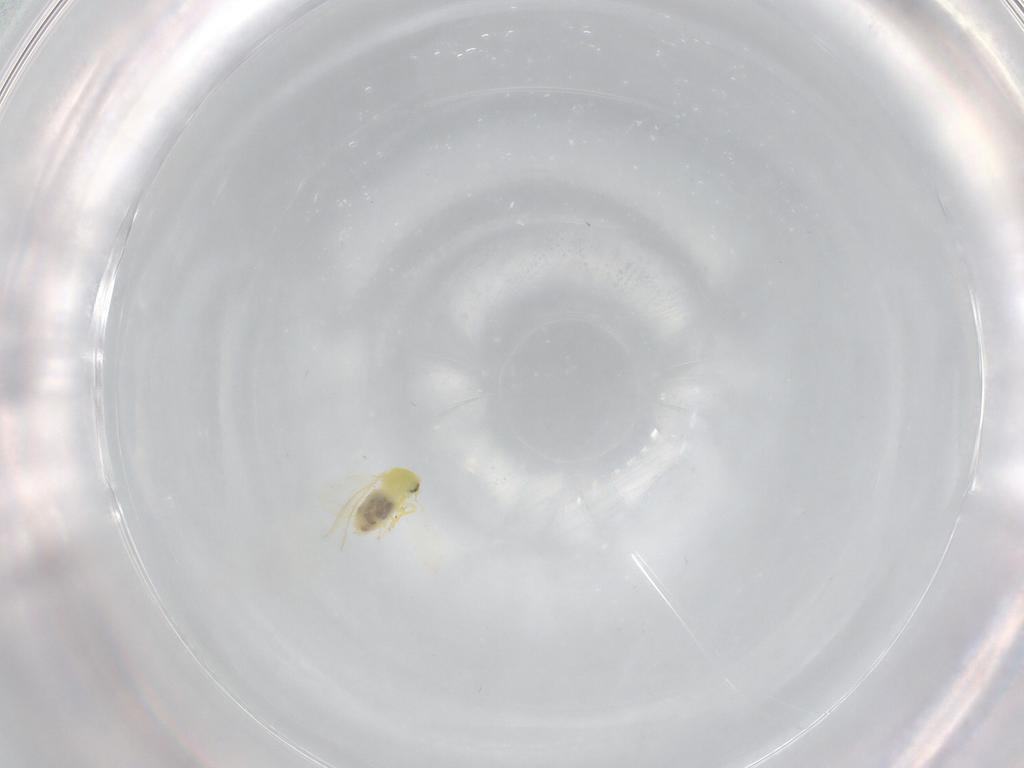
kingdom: Animalia
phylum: Arthropoda
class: Insecta
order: Hemiptera
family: Aleyrodidae
